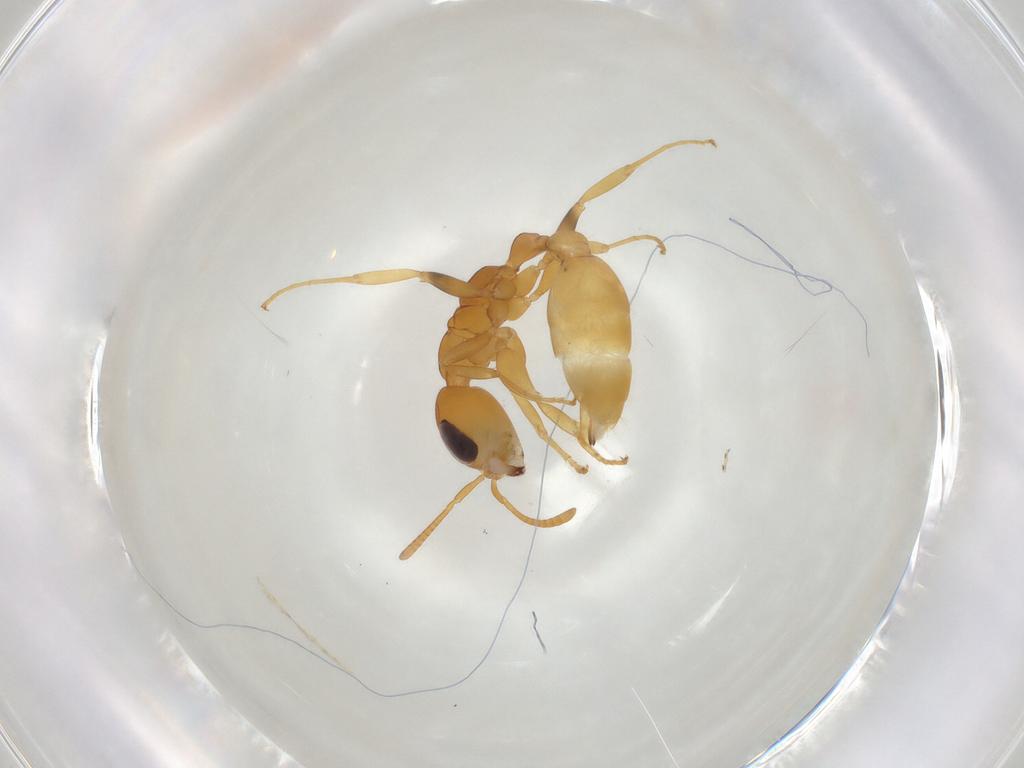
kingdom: Animalia
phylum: Arthropoda
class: Insecta
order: Hymenoptera
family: Formicidae
